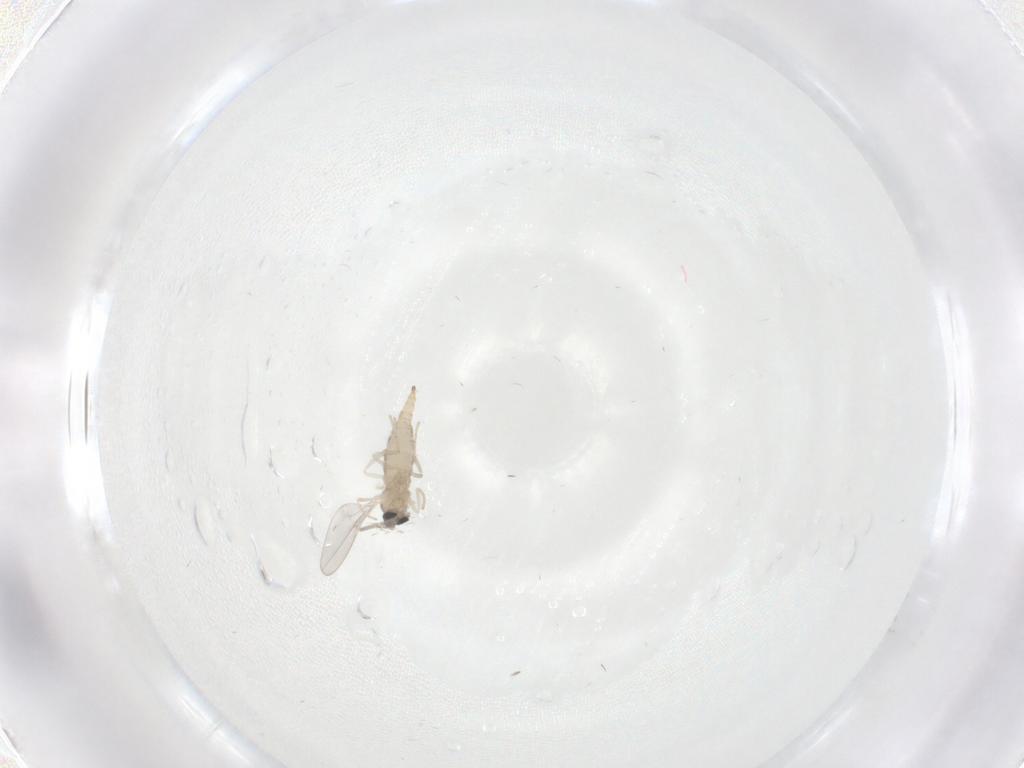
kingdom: Animalia
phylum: Arthropoda
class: Insecta
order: Diptera
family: Cecidomyiidae
